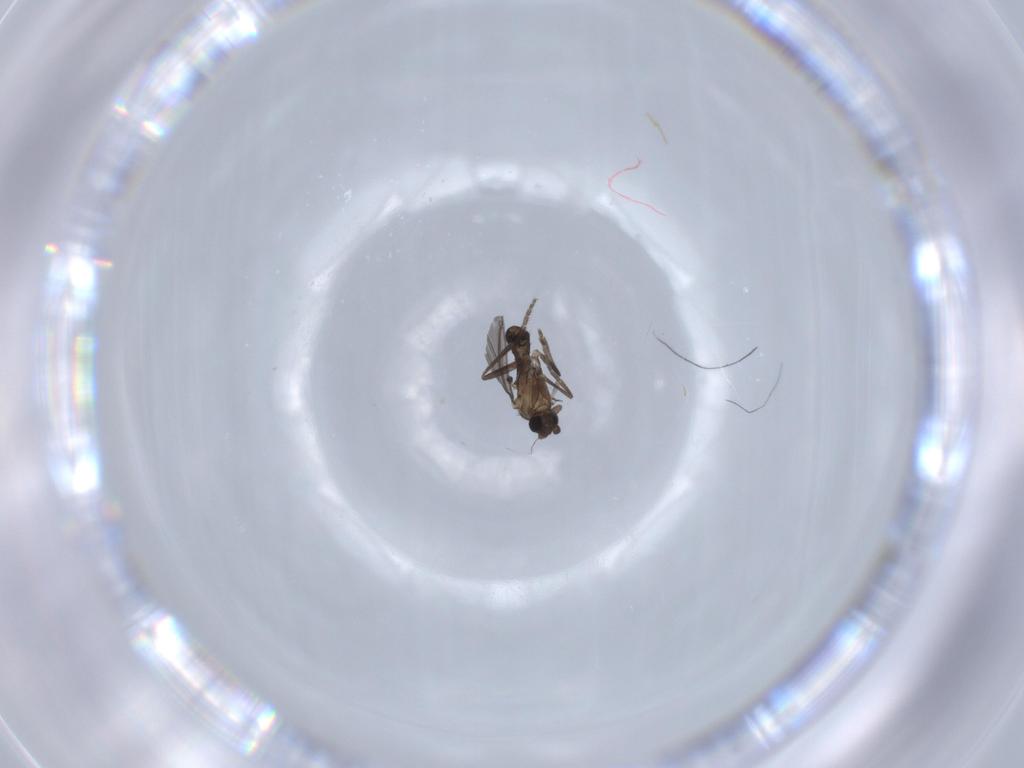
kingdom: Animalia
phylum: Arthropoda
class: Insecta
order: Diptera
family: Phoridae
